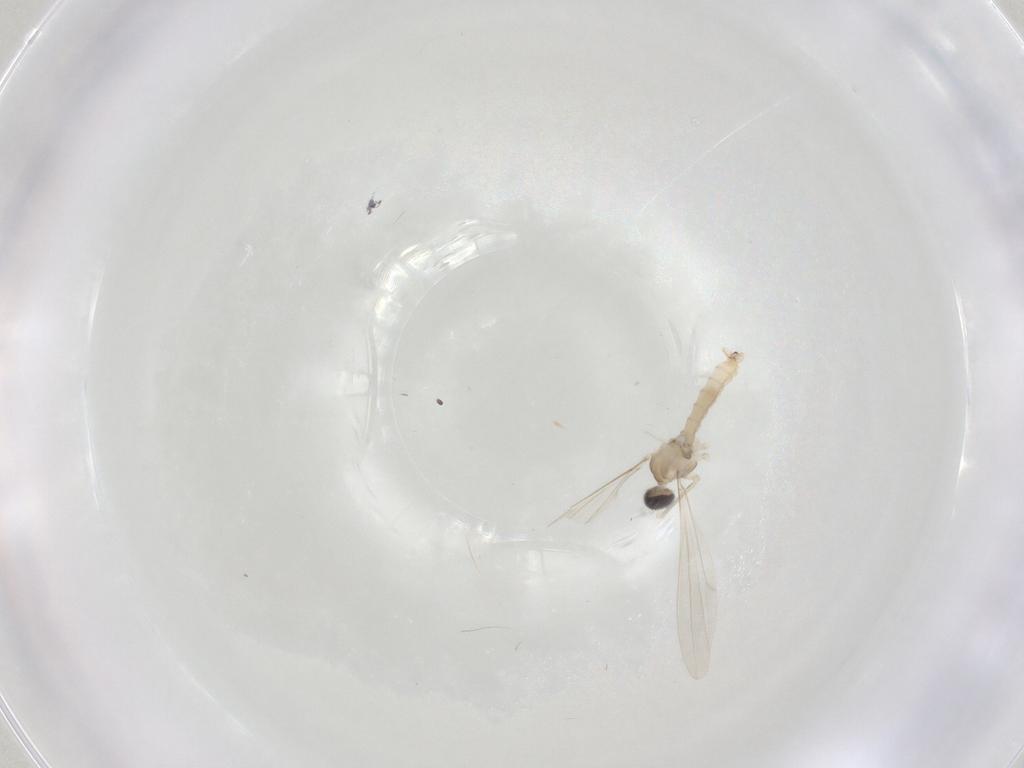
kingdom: Animalia
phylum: Arthropoda
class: Insecta
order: Diptera
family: Cecidomyiidae
